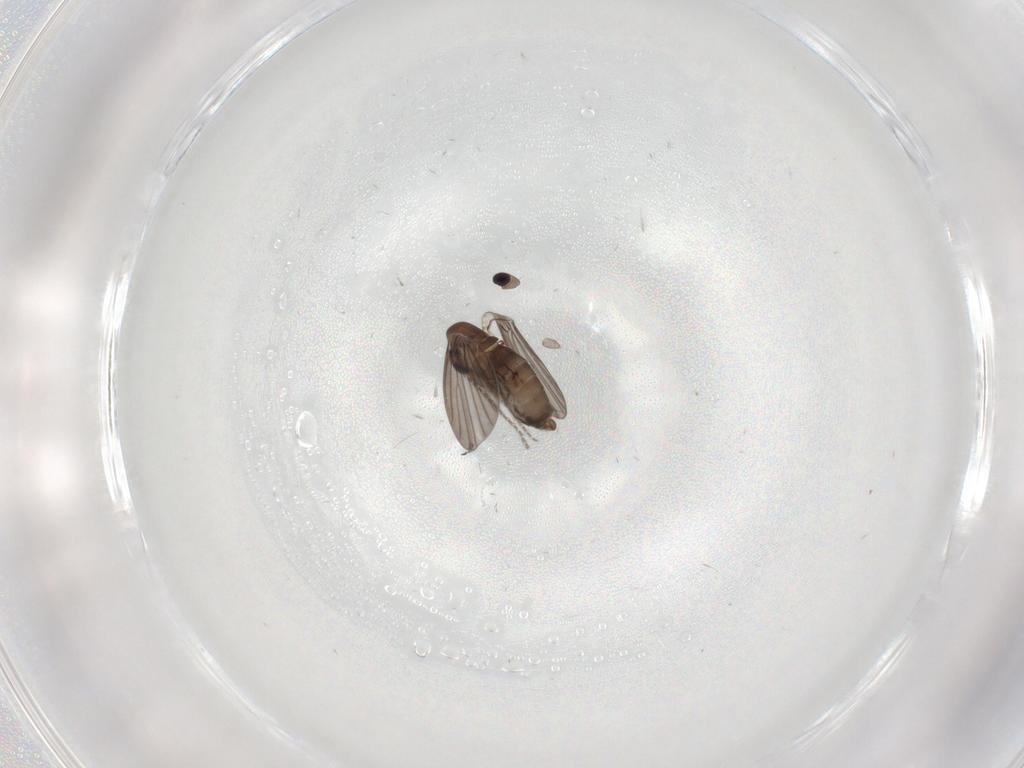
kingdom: Animalia
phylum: Arthropoda
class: Insecta
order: Diptera
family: Cecidomyiidae
